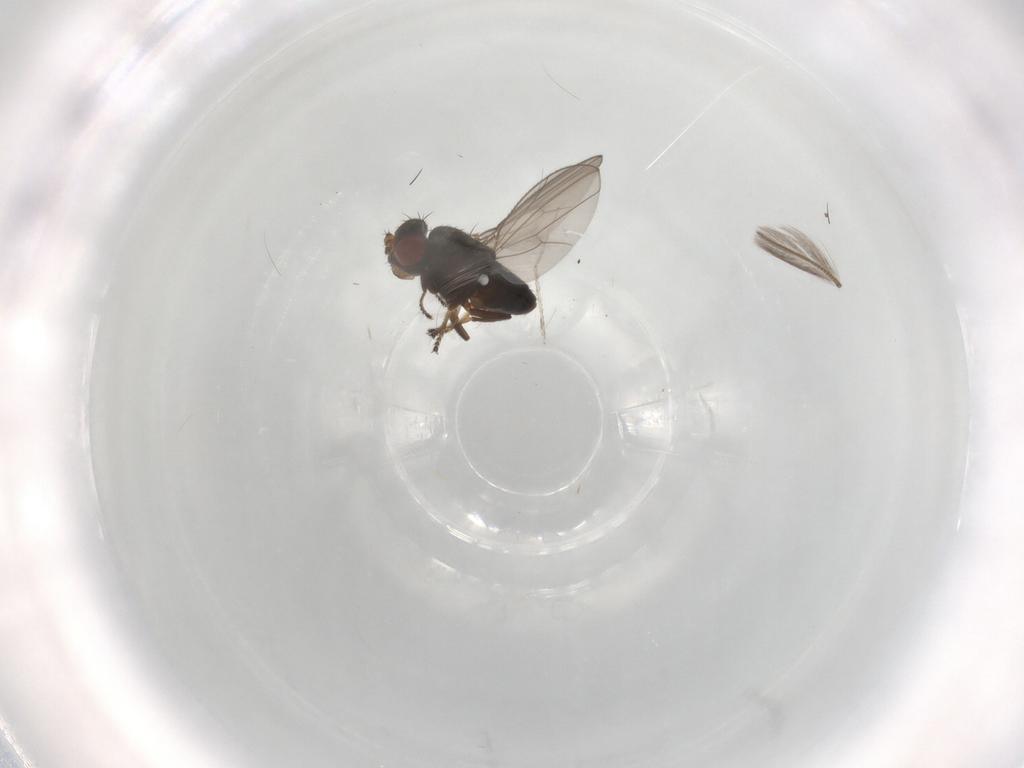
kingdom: Animalia
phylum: Arthropoda
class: Insecta
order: Diptera
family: Cecidomyiidae
